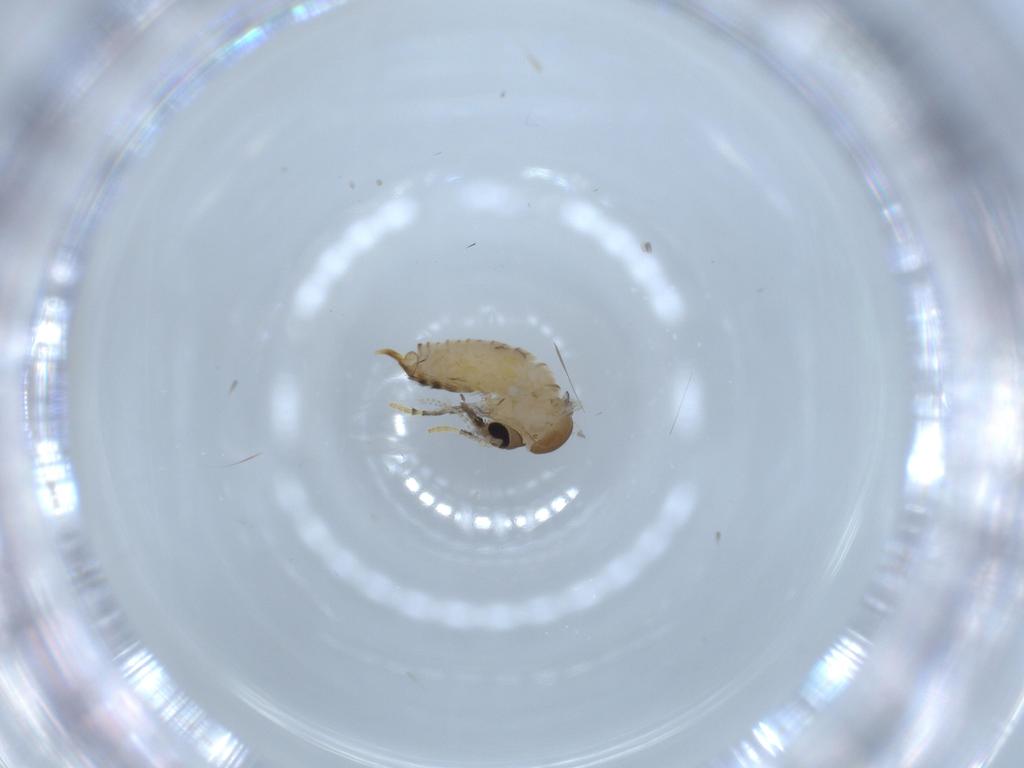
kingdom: Animalia
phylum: Arthropoda
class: Insecta
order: Diptera
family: Psychodidae
